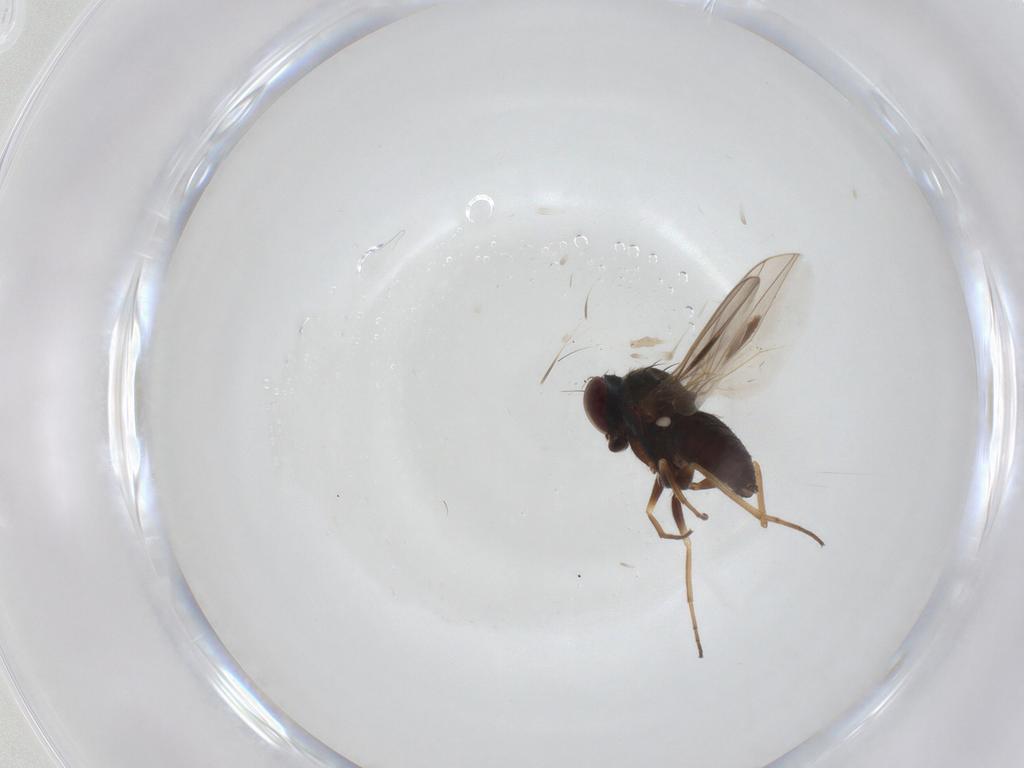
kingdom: Animalia
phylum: Arthropoda
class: Insecta
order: Diptera
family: Dolichopodidae
